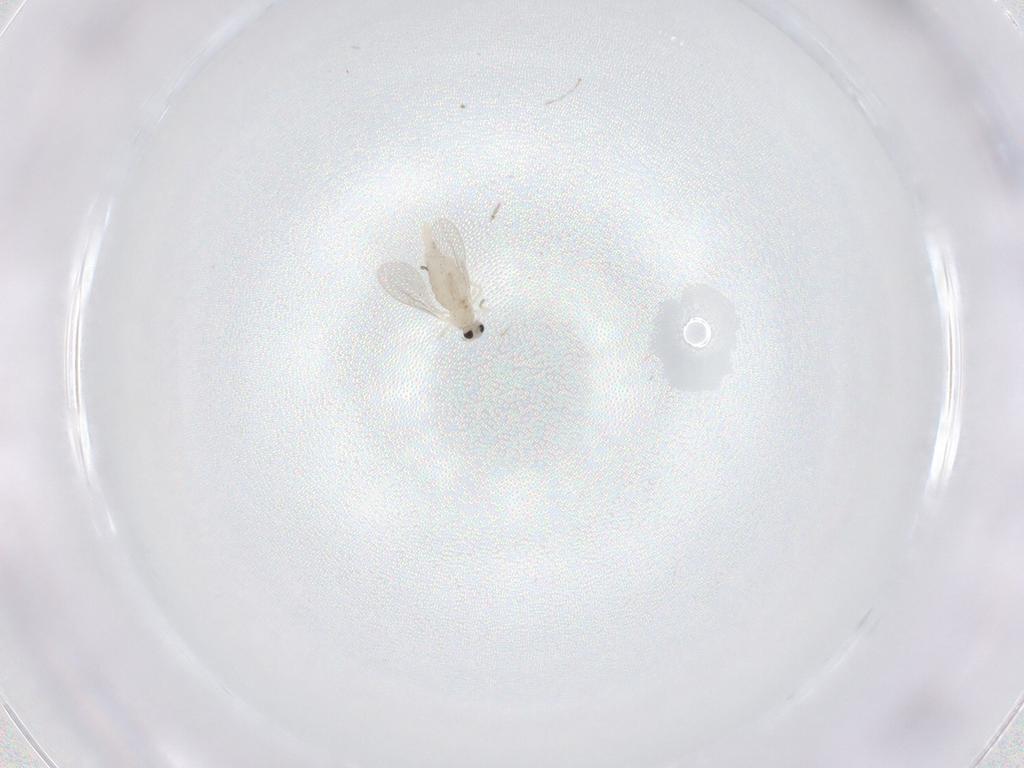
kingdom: Animalia
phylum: Arthropoda
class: Insecta
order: Diptera
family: Cecidomyiidae
